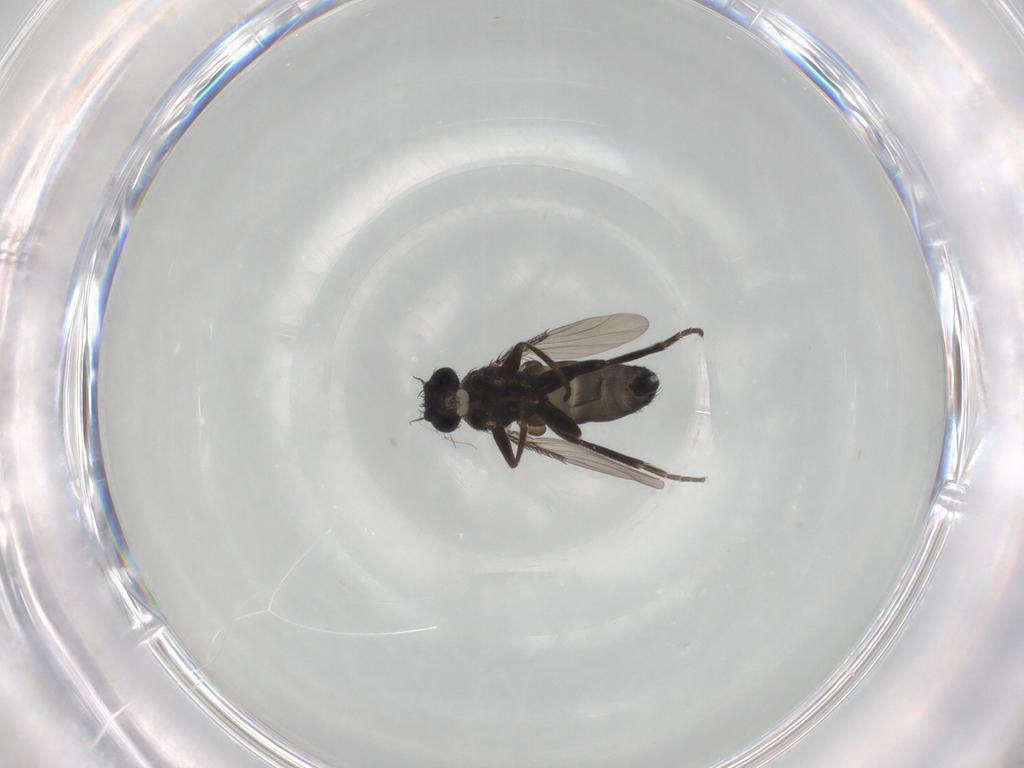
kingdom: Animalia
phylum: Arthropoda
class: Insecta
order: Diptera
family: Phoridae
